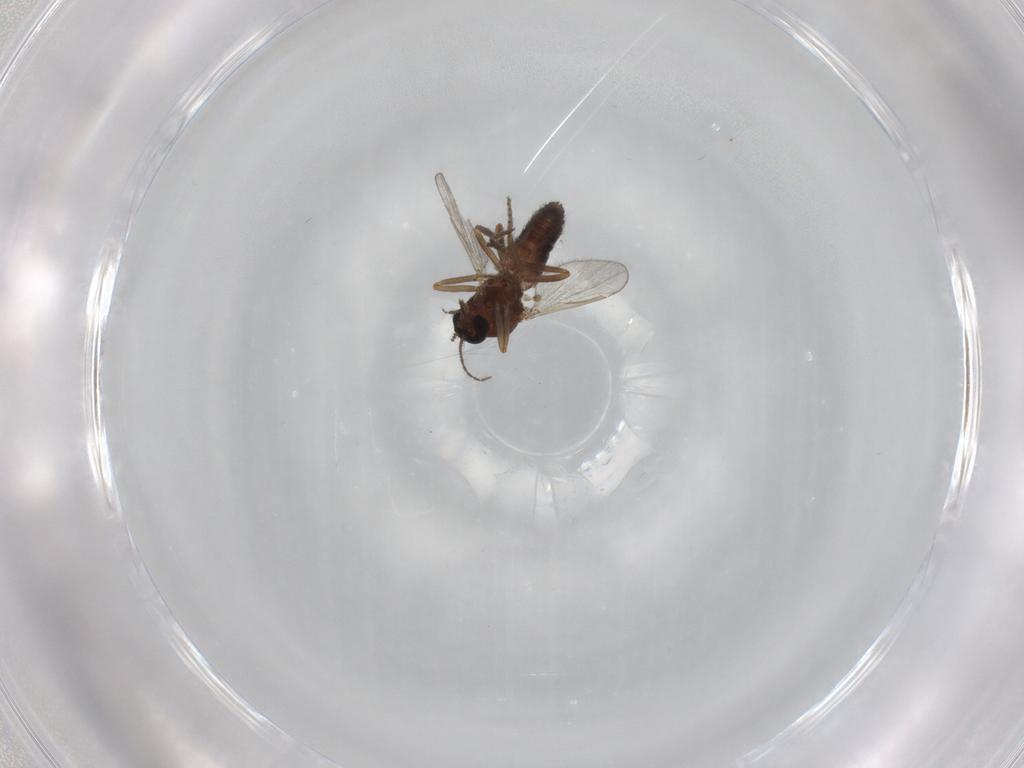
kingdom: Animalia
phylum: Arthropoda
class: Insecta
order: Diptera
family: Ceratopogonidae
